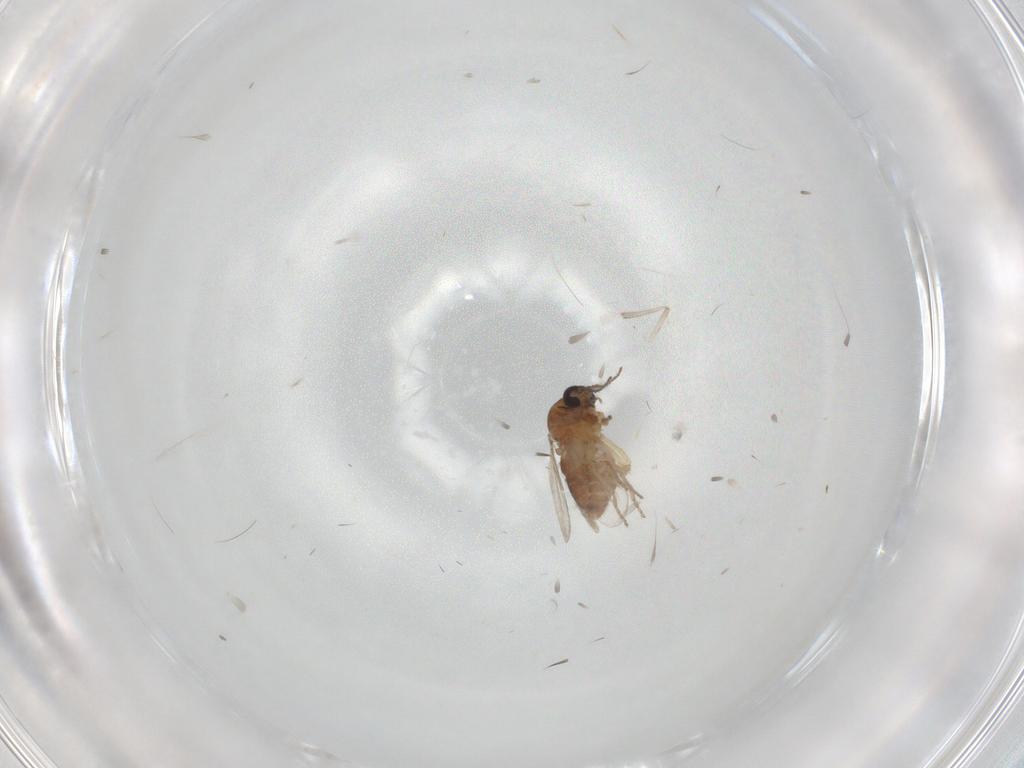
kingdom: Animalia
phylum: Arthropoda
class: Insecta
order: Diptera
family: Ceratopogonidae
